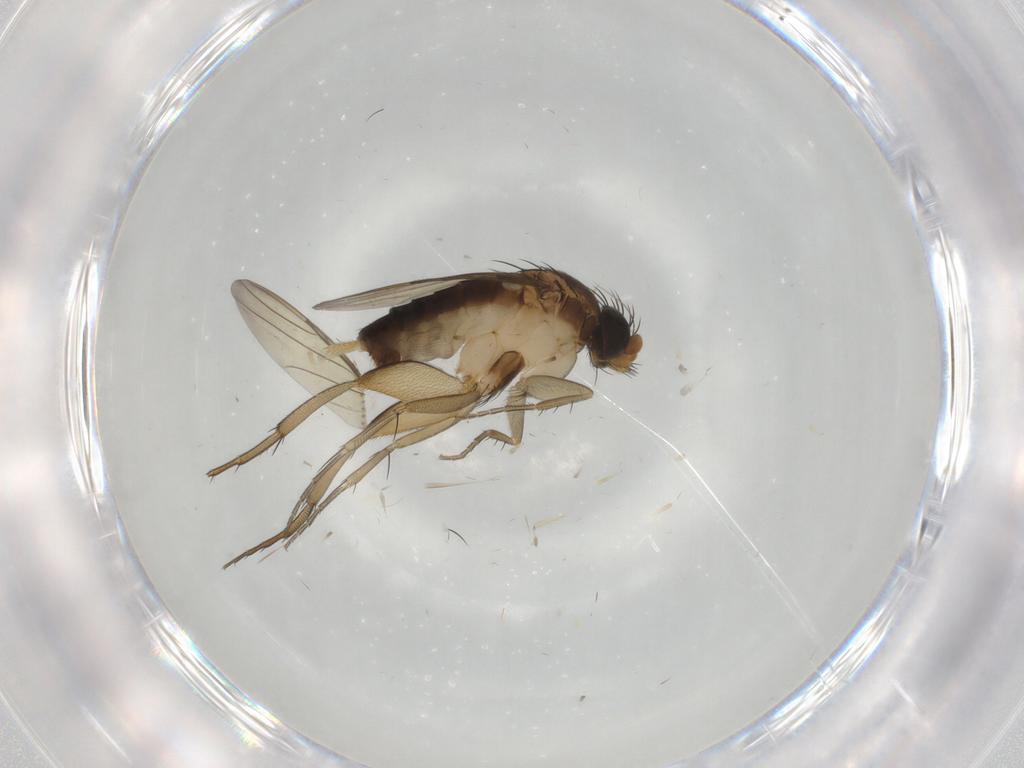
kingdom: Animalia
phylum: Arthropoda
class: Insecta
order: Diptera
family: Phoridae
